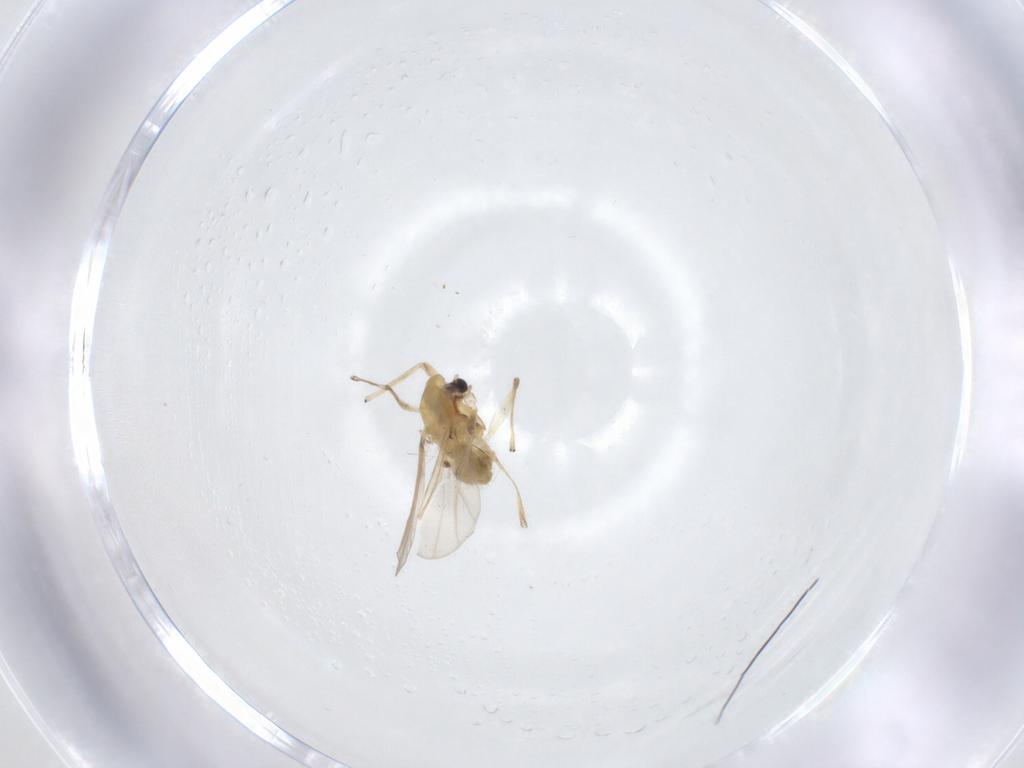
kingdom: Animalia
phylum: Arthropoda
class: Insecta
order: Diptera
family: Chironomidae
